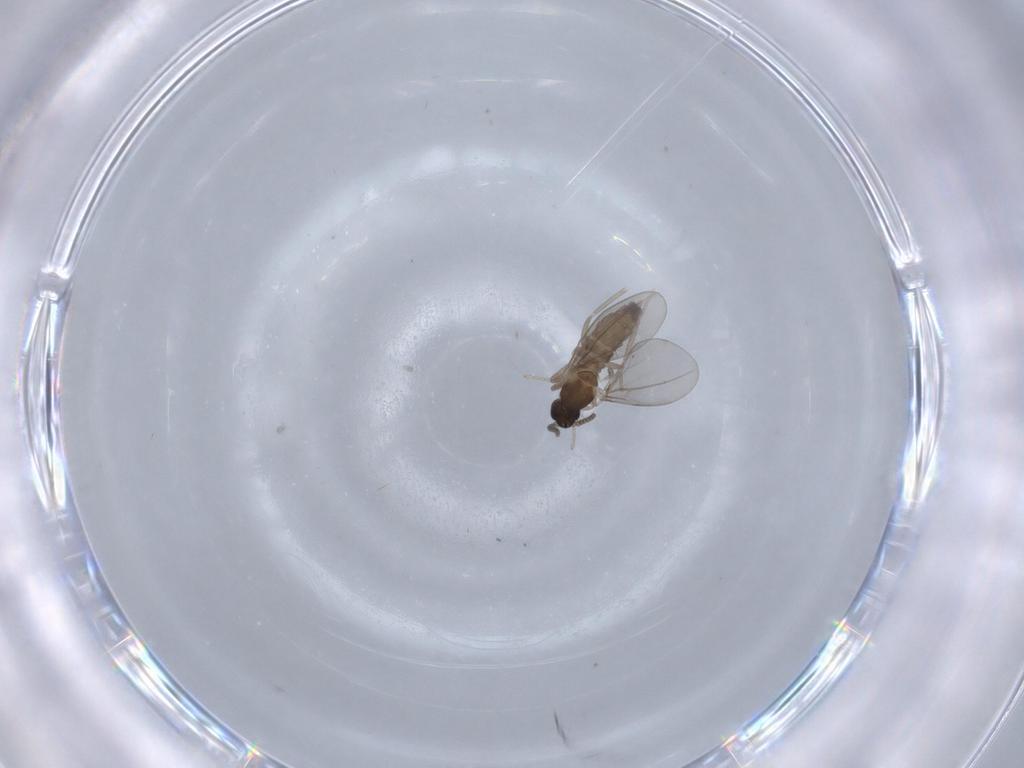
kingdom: Animalia
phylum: Arthropoda
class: Insecta
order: Diptera
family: Cecidomyiidae
